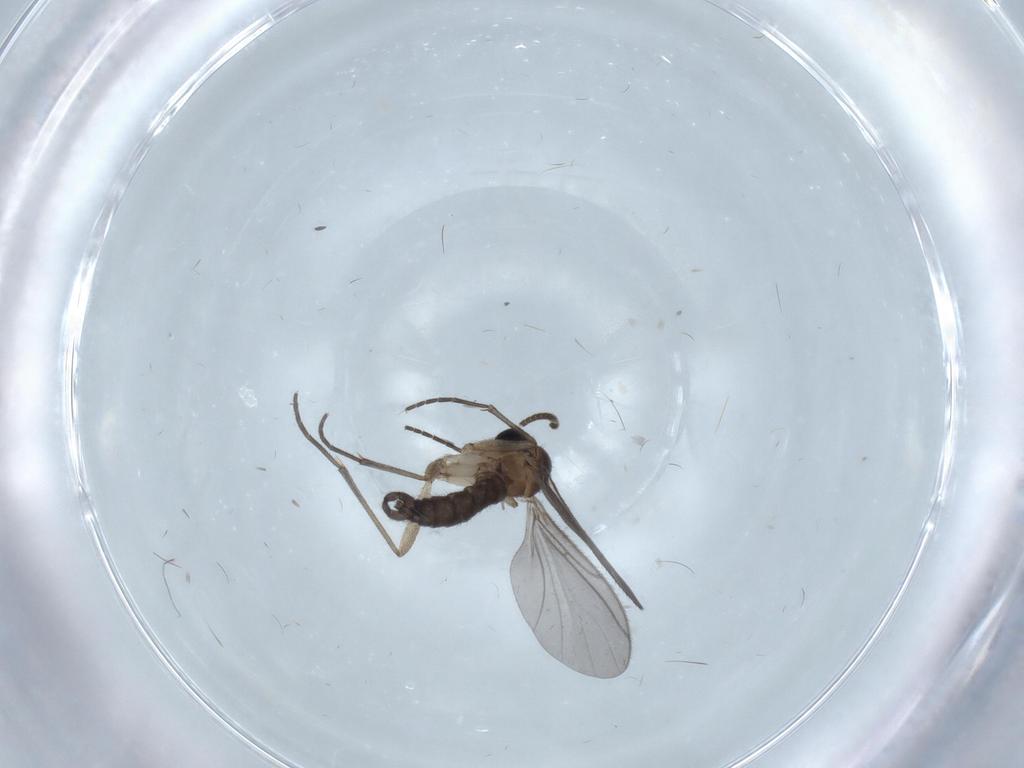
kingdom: Animalia
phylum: Arthropoda
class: Insecta
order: Diptera
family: Sciaridae
